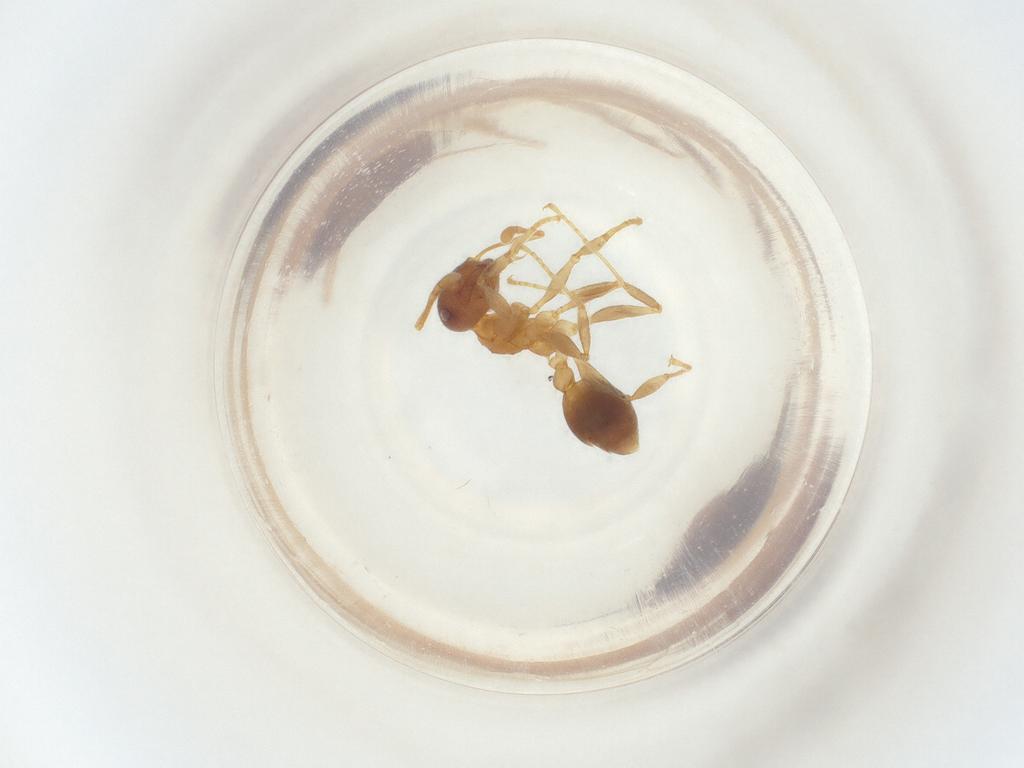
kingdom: Animalia
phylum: Arthropoda
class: Insecta
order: Hymenoptera
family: Formicidae
